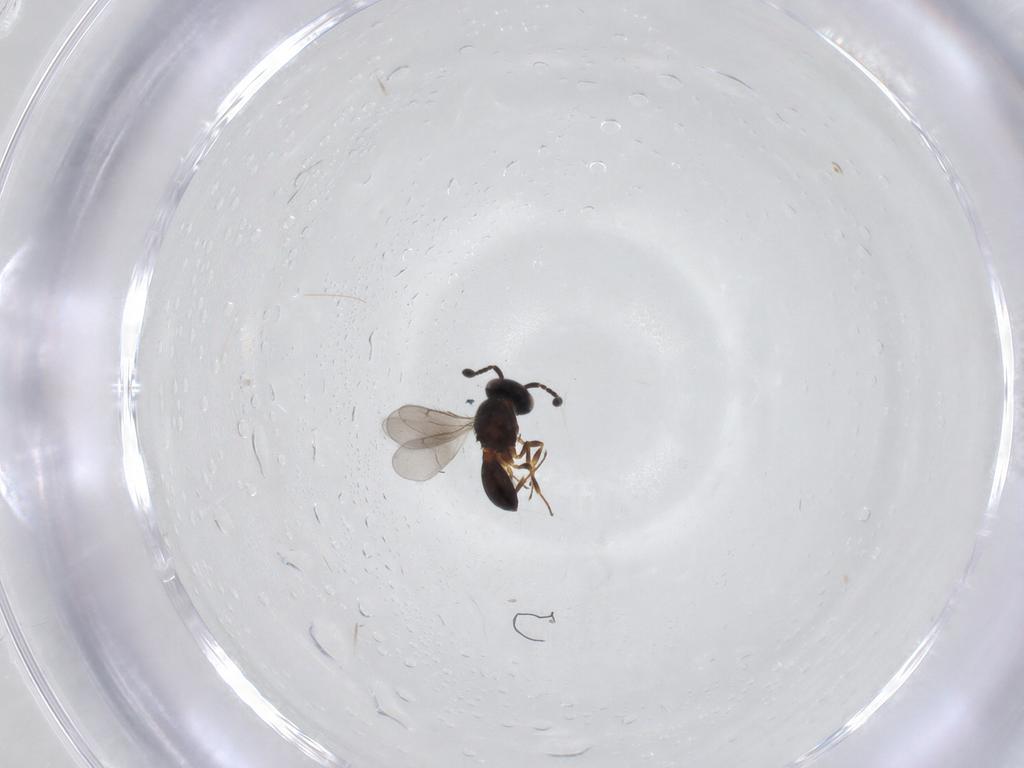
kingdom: Animalia
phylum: Arthropoda
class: Insecta
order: Hymenoptera
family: Scelionidae
